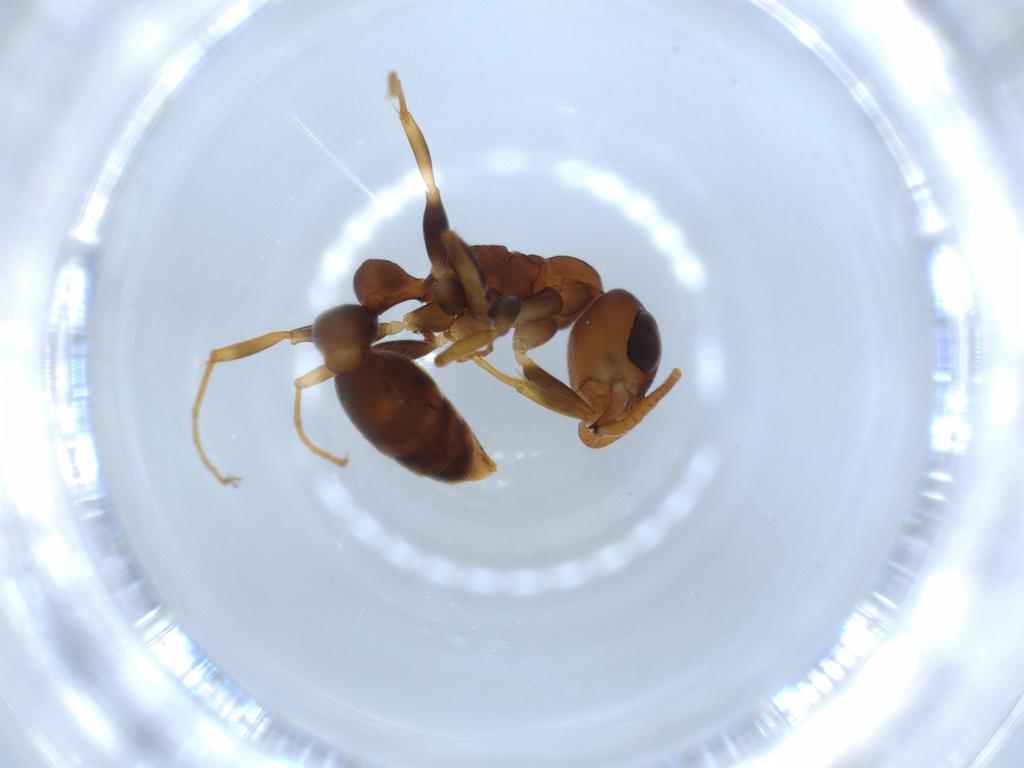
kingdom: Animalia
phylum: Arthropoda
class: Insecta
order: Hymenoptera
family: Formicidae
